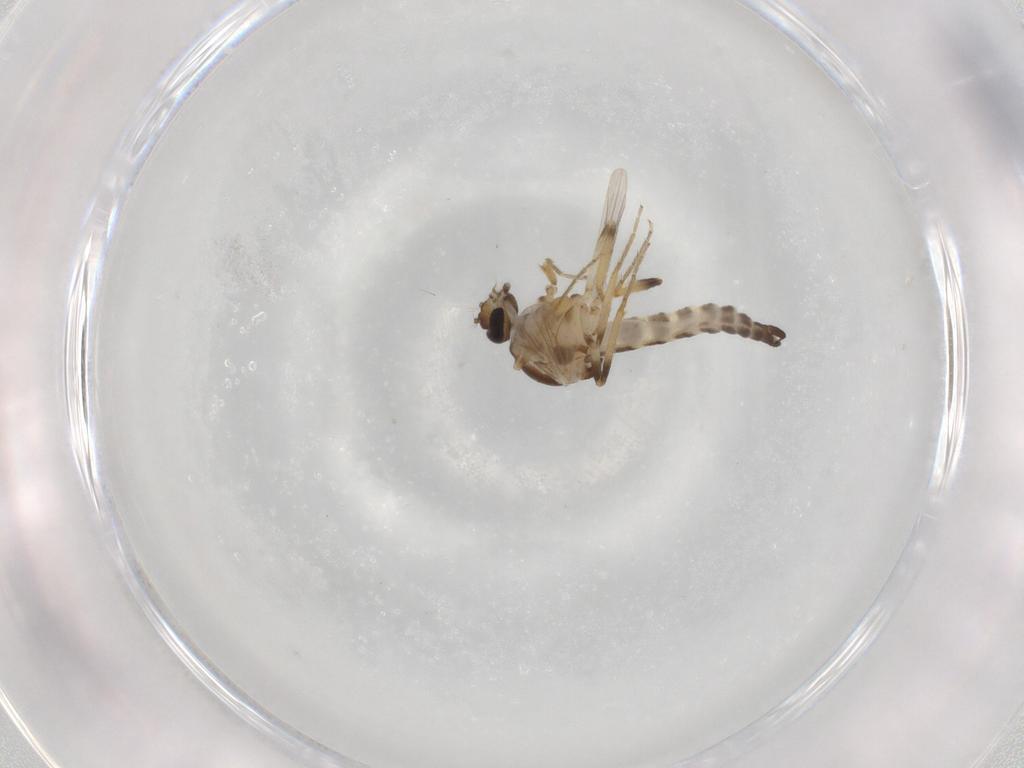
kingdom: Animalia
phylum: Arthropoda
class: Insecta
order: Diptera
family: Ceratopogonidae
